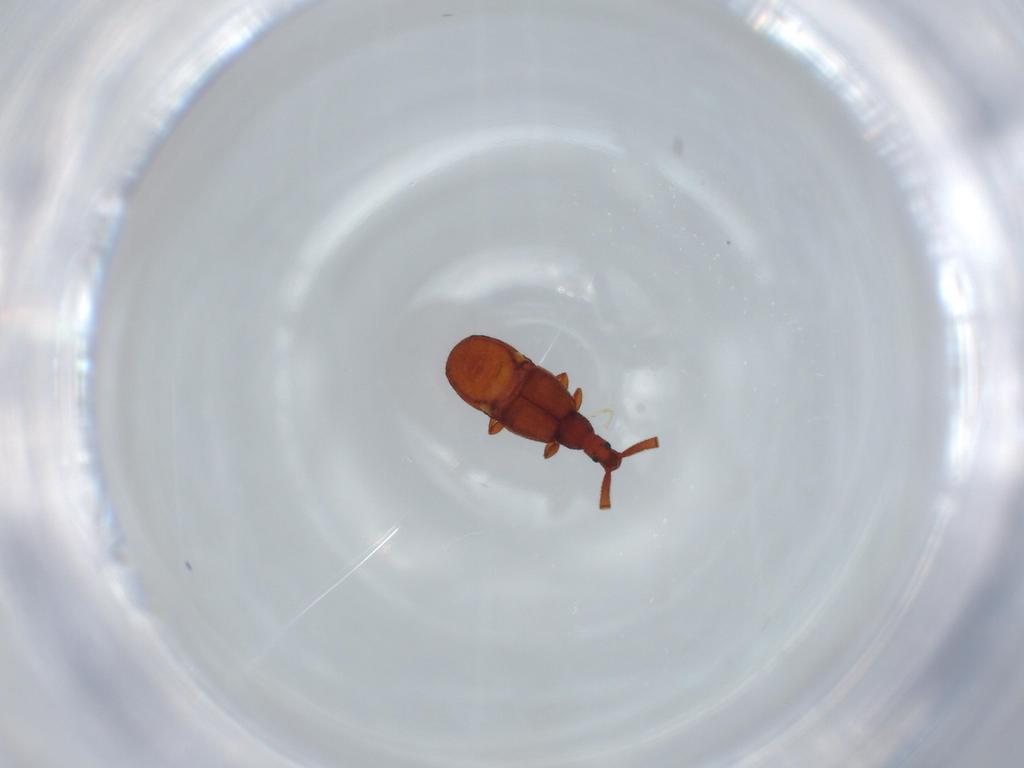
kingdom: Animalia
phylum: Arthropoda
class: Insecta
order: Coleoptera
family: Staphylinidae
